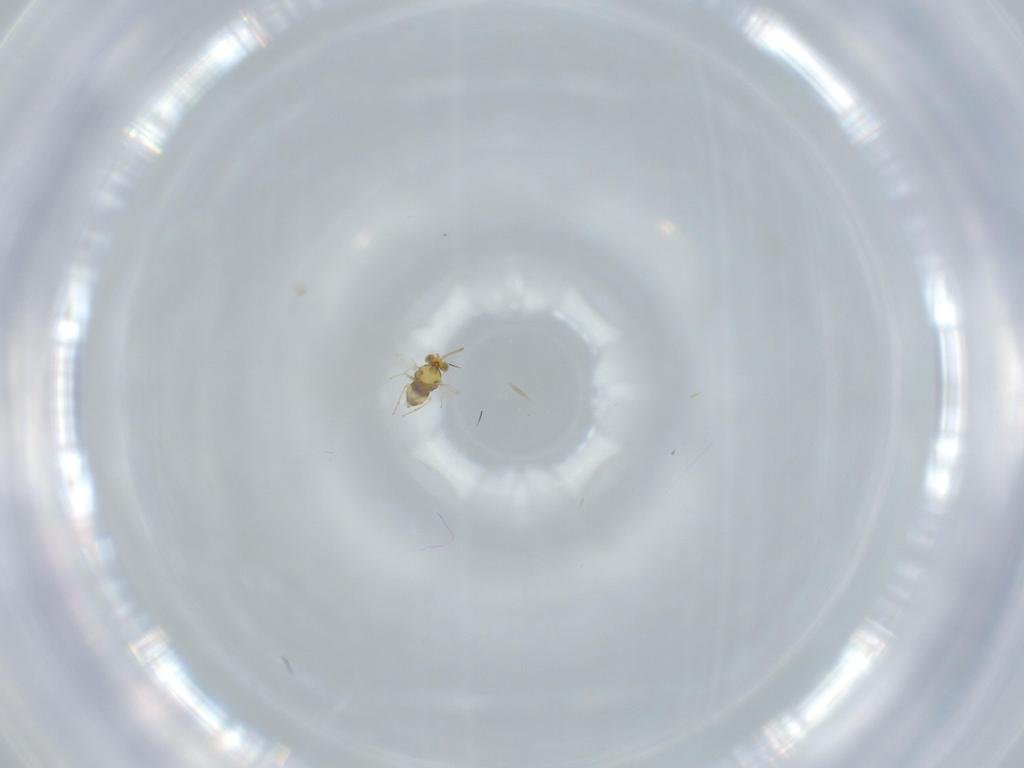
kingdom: Animalia
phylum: Arthropoda
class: Insecta
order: Hymenoptera
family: Aphelinidae
